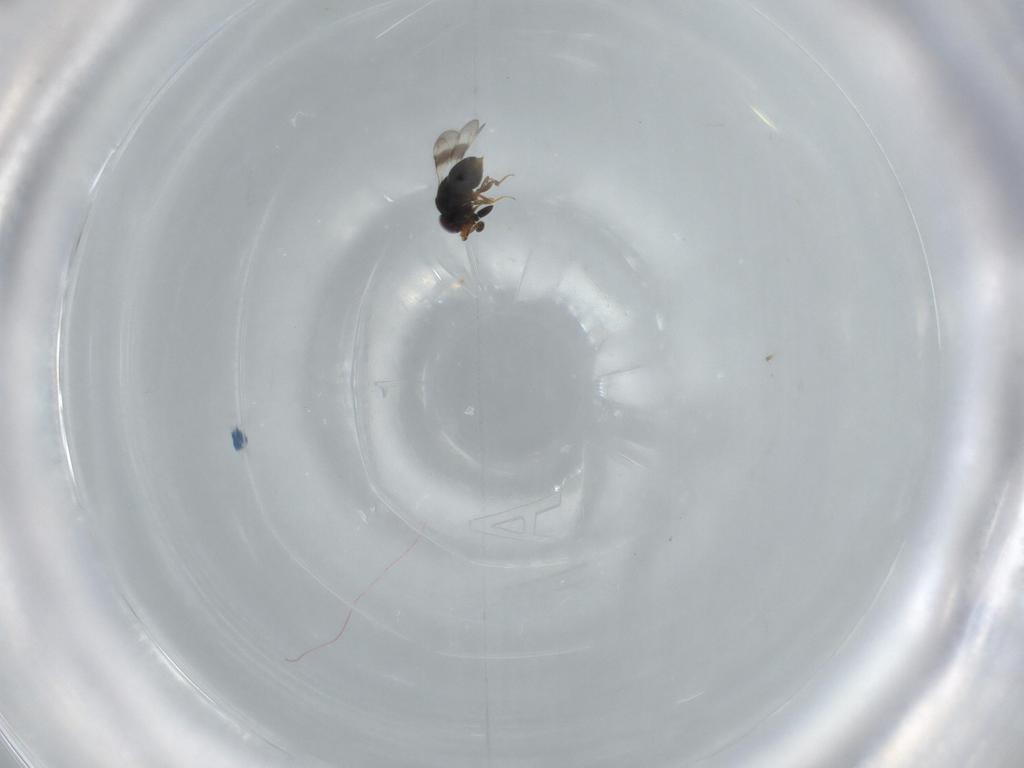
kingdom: Animalia
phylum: Arthropoda
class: Insecta
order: Hymenoptera
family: Ceraphronidae
